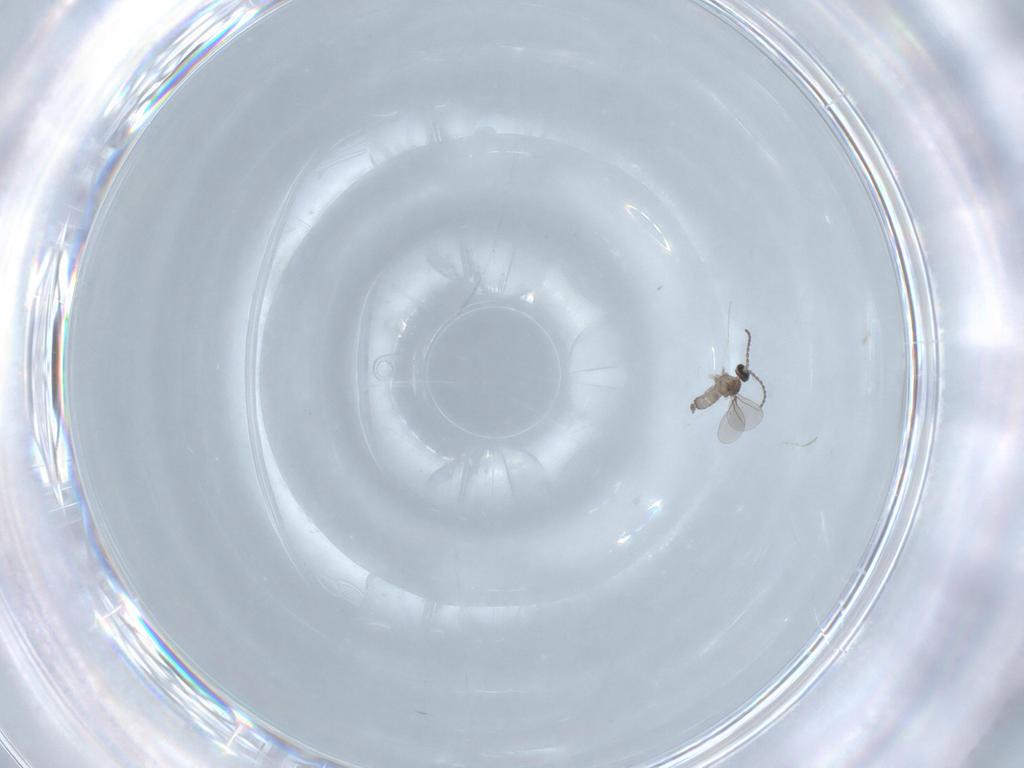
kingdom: Animalia
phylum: Arthropoda
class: Insecta
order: Diptera
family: Cecidomyiidae
